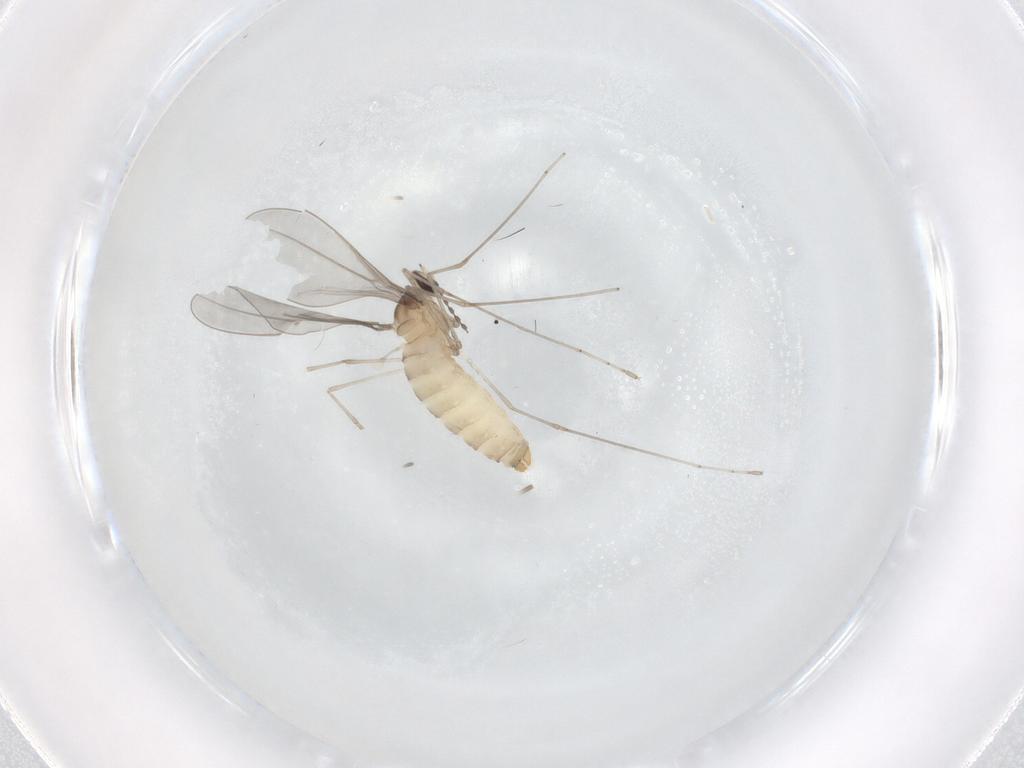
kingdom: Animalia
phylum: Arthropoda
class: Insecta
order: Diptera
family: Cecidomyiidae
